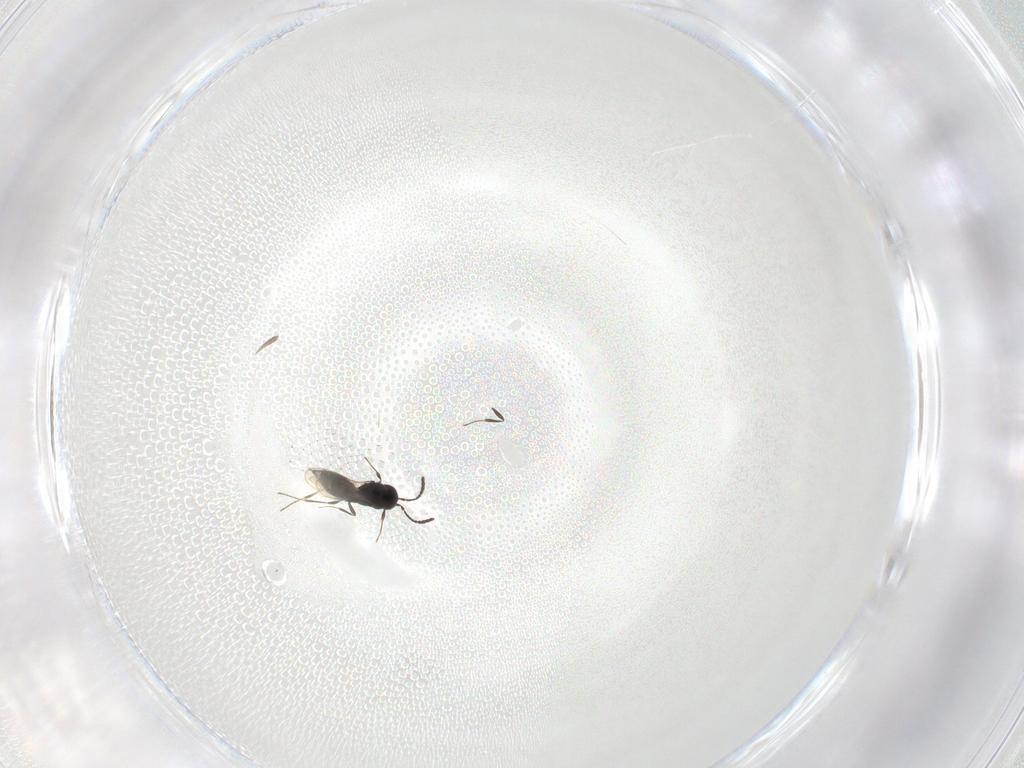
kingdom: Animalia
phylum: Arthropoda
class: Insecta
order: Hymenoptera
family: Scelionidae
